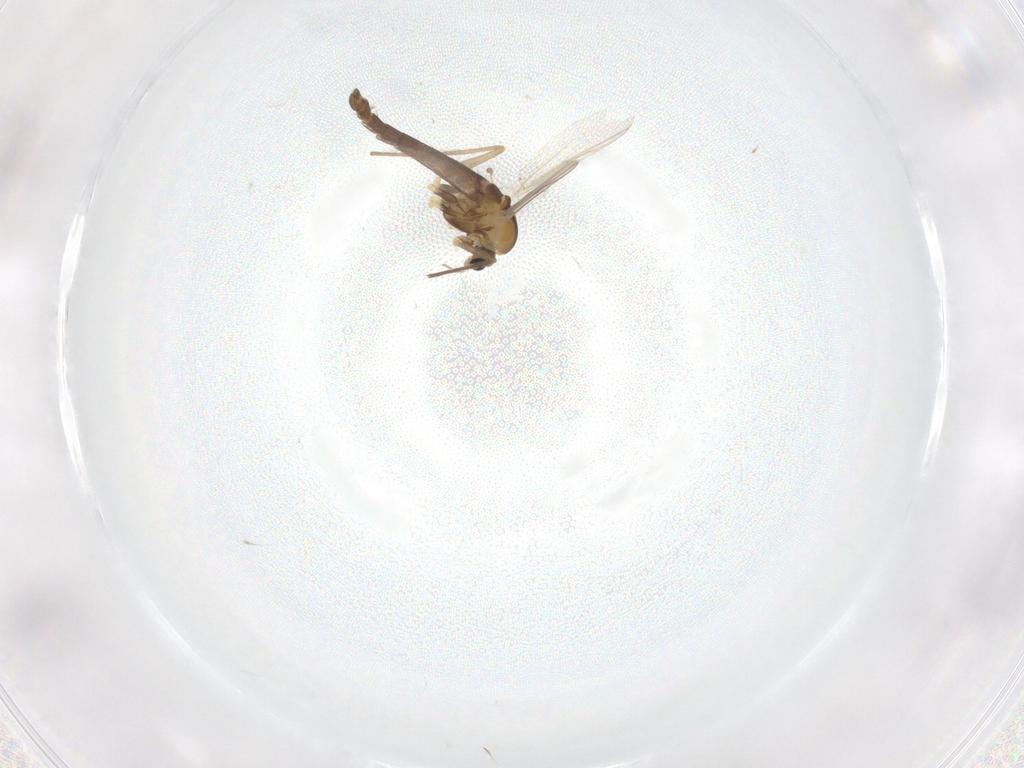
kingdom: Animalia
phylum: Arthropoda
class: Insecta
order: Diptera
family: Chironomidae
